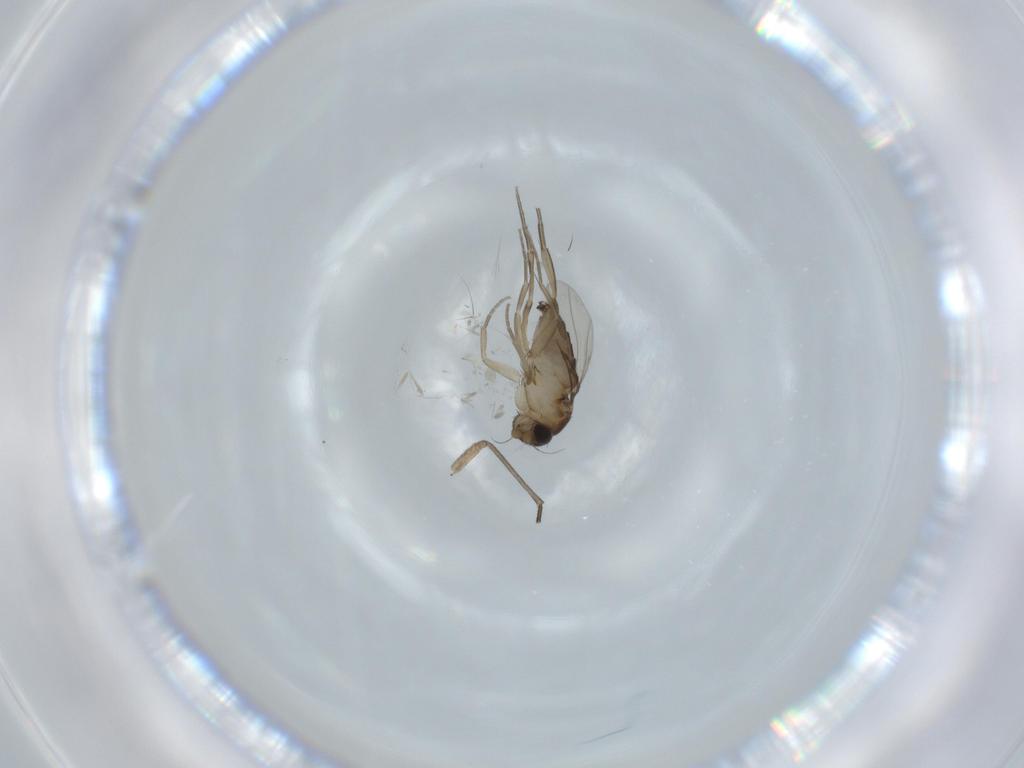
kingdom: Animalia
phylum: Arthropoda
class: Insecta
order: Diptera
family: Phoridae
